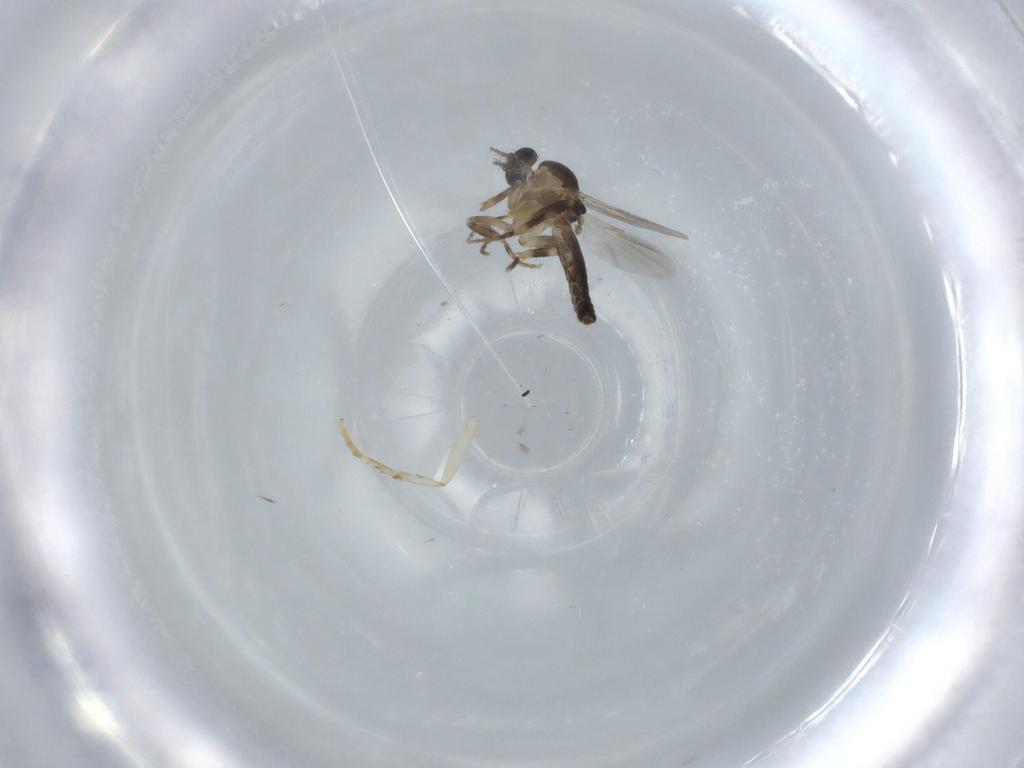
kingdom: Animalia
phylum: Arthropoda
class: Insecta
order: Diptera
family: Ceratopogonidae
